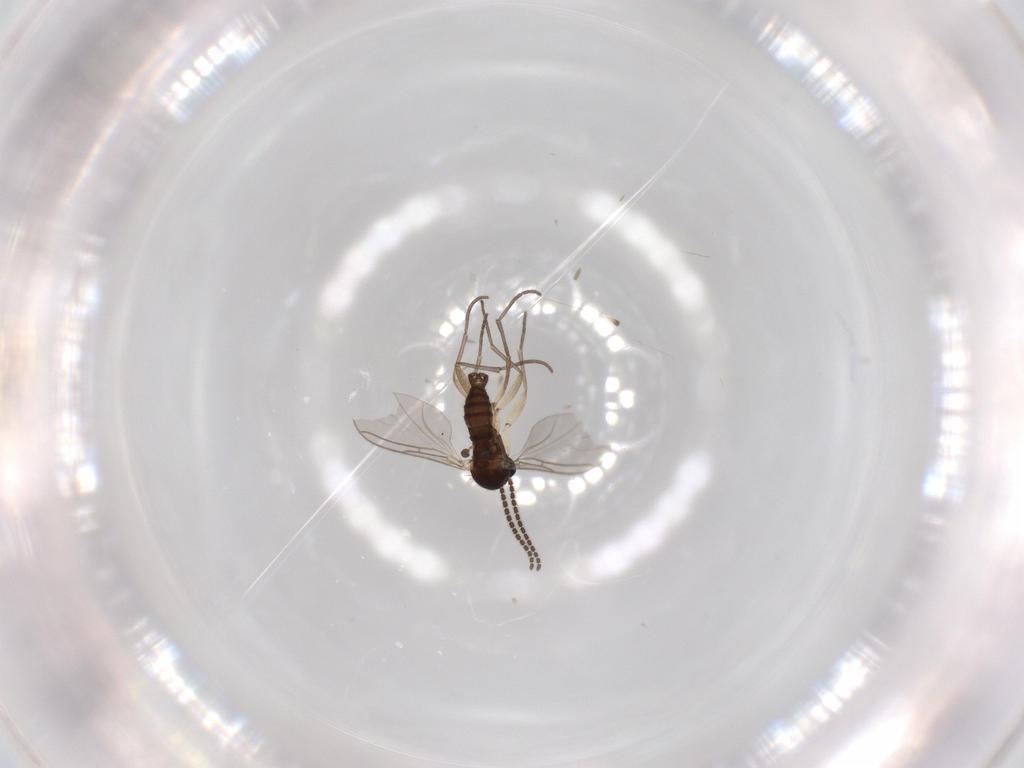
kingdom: Animalia
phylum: Arthropoda
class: Insecta
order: Diptera
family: Sciaridae
